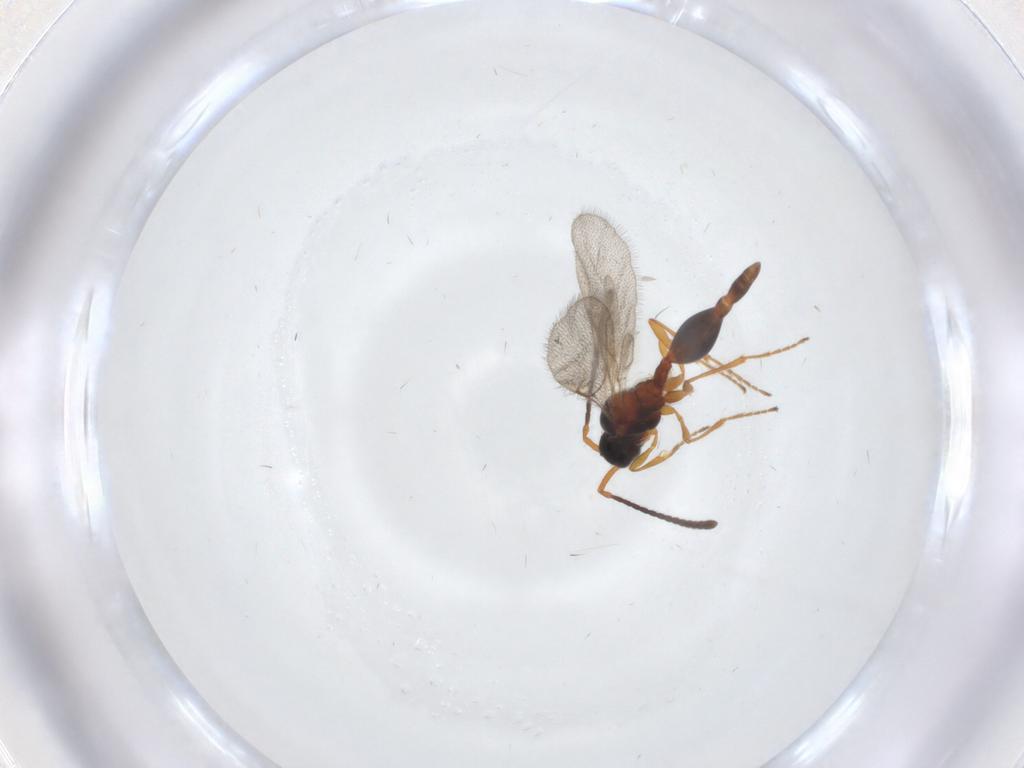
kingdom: Animalia
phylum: Arthropoda
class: Insecta
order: Hymenoptera
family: Diapriidae
